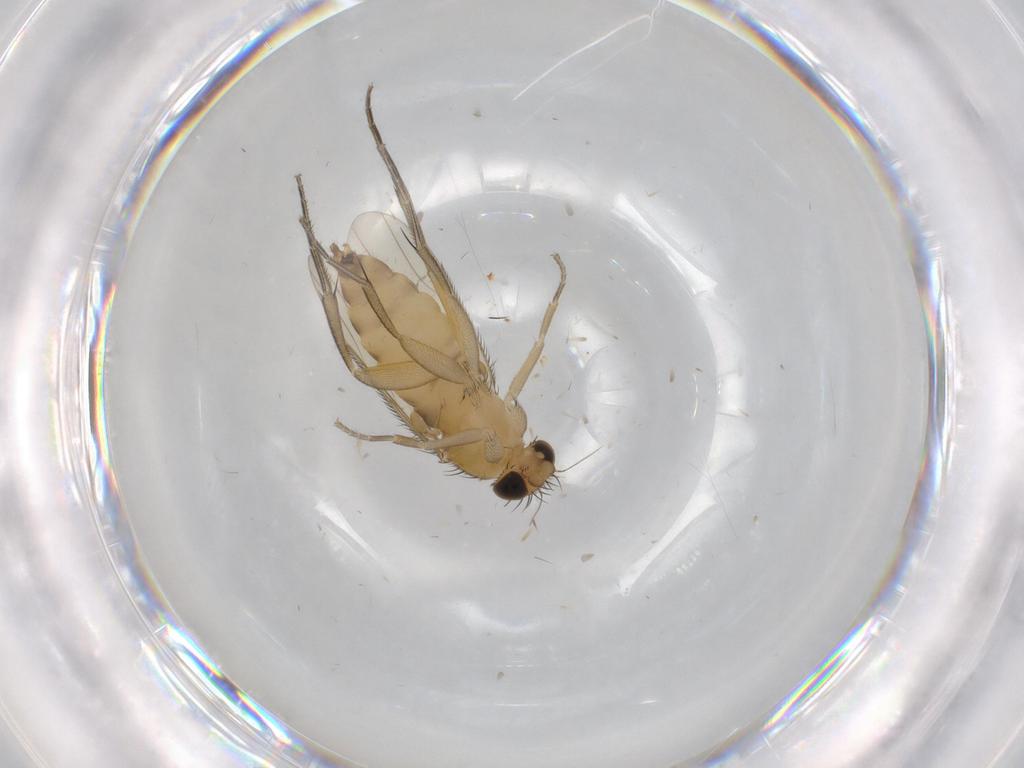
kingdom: Animalia
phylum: Arthropoda
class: Insecta
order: Diptera
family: Phoridae
